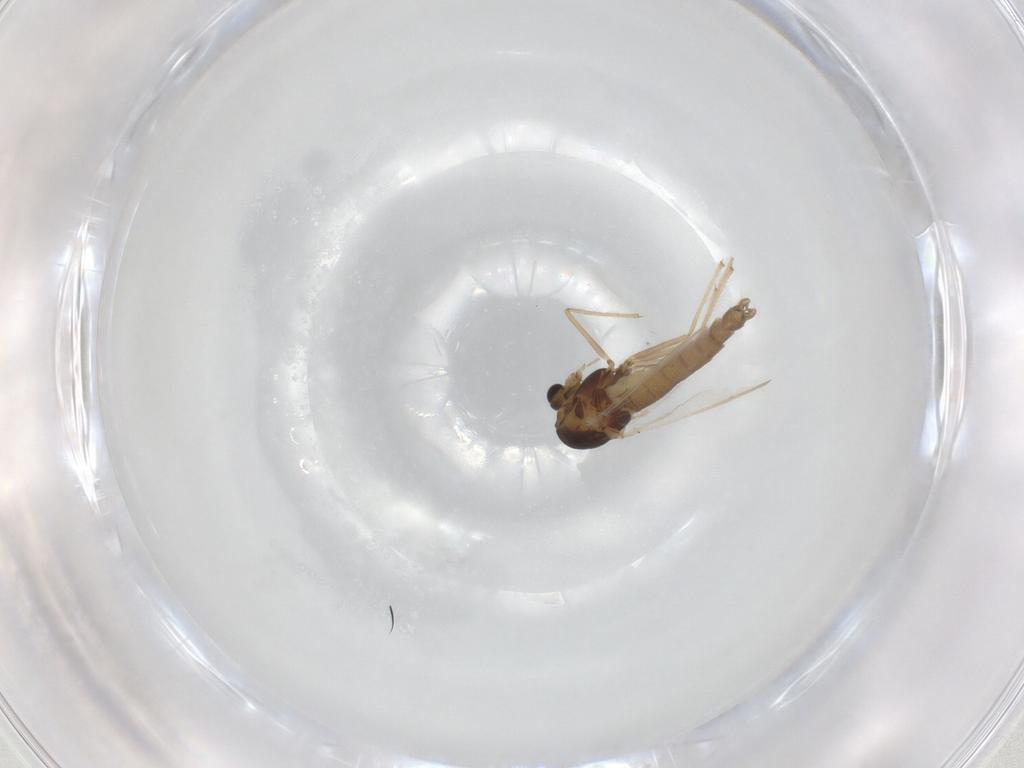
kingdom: Animalia
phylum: Arthropoda
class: Insecta
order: Diptera
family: Chironomidae
